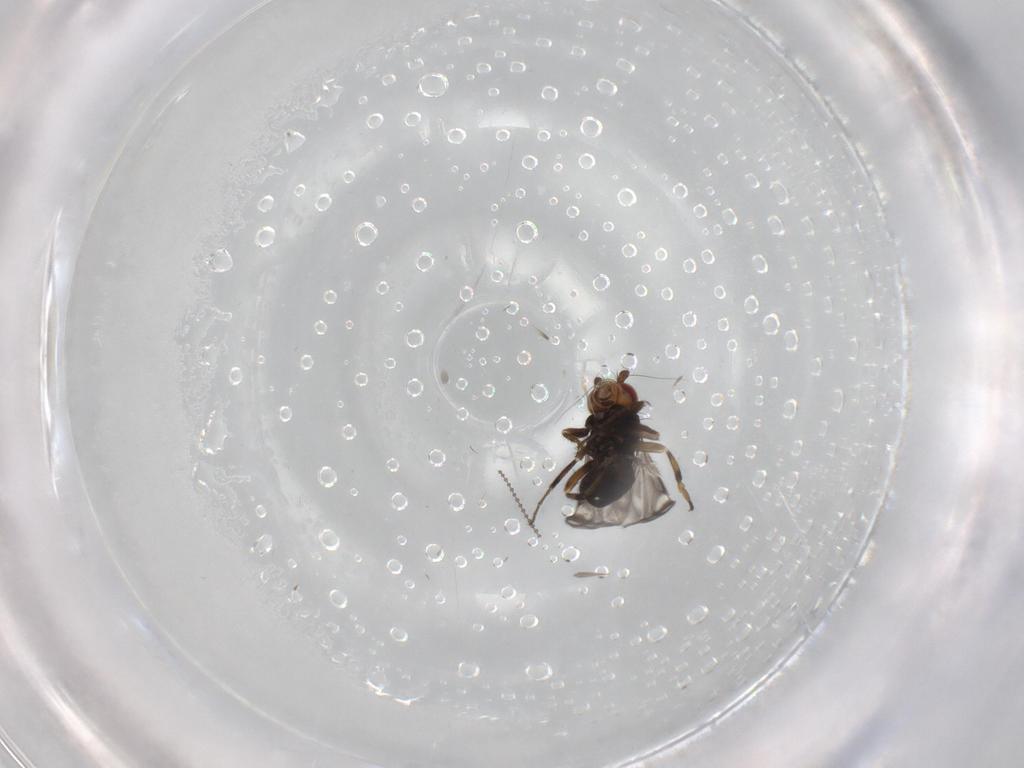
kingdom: Animalia
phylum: Arthropoda
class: Insecta
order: Diptera
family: Sphaeroceridae
